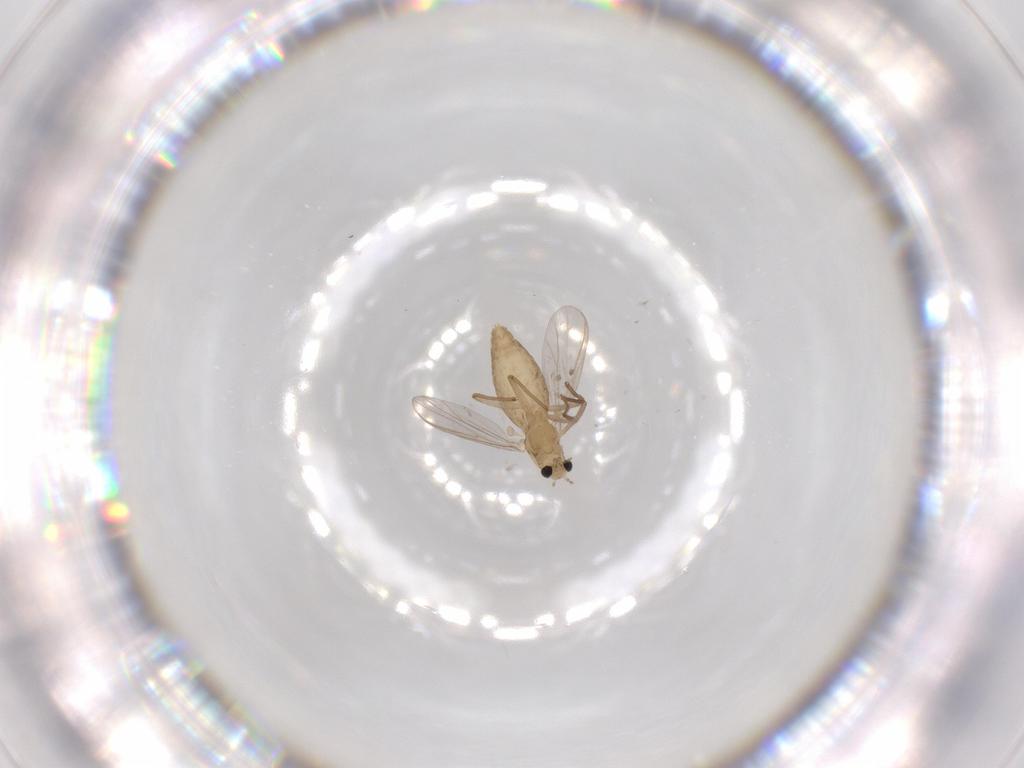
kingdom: Animalia
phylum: Arthropoda
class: Insecta
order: Diptera
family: Chironomidae
